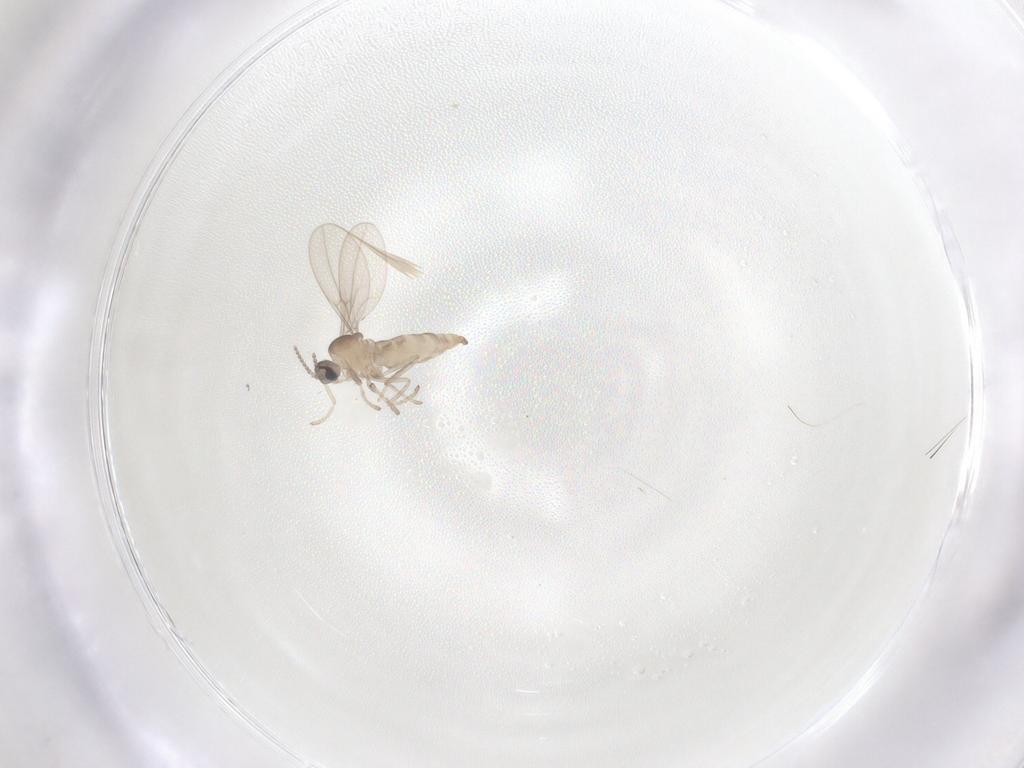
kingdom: Animalia
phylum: Arthropoda
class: Insecta
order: Diptera
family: Cecidomyiidae
